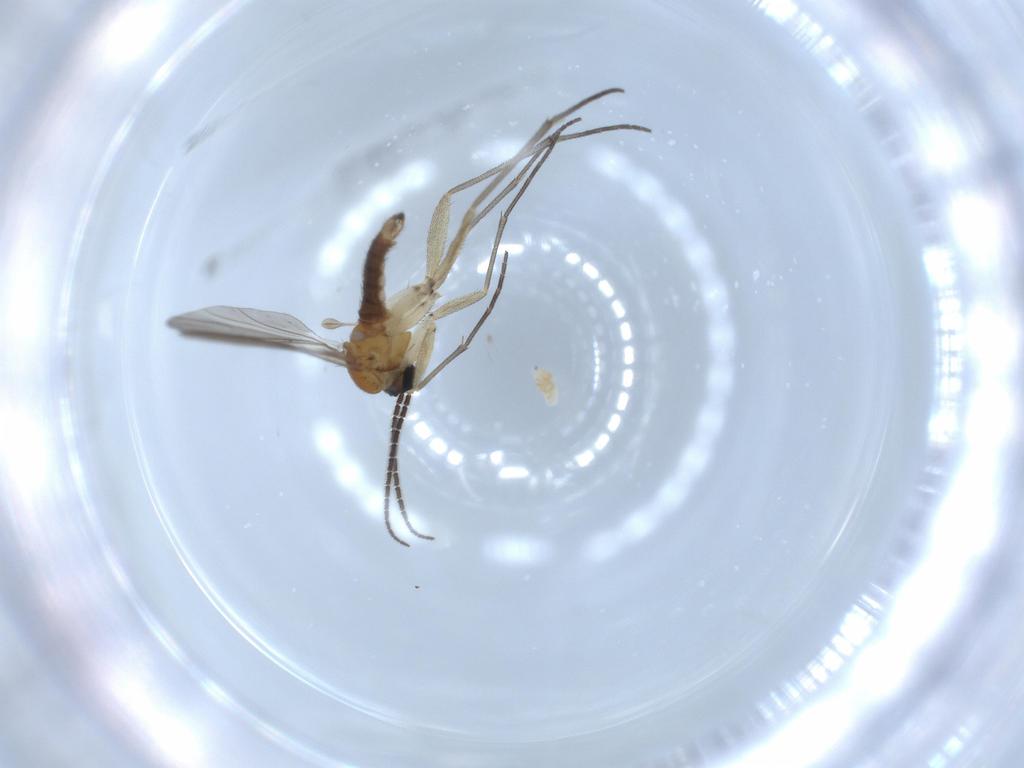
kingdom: Animalia
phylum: Arthropoda
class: Insecta
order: Diptera
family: Sciaridae
